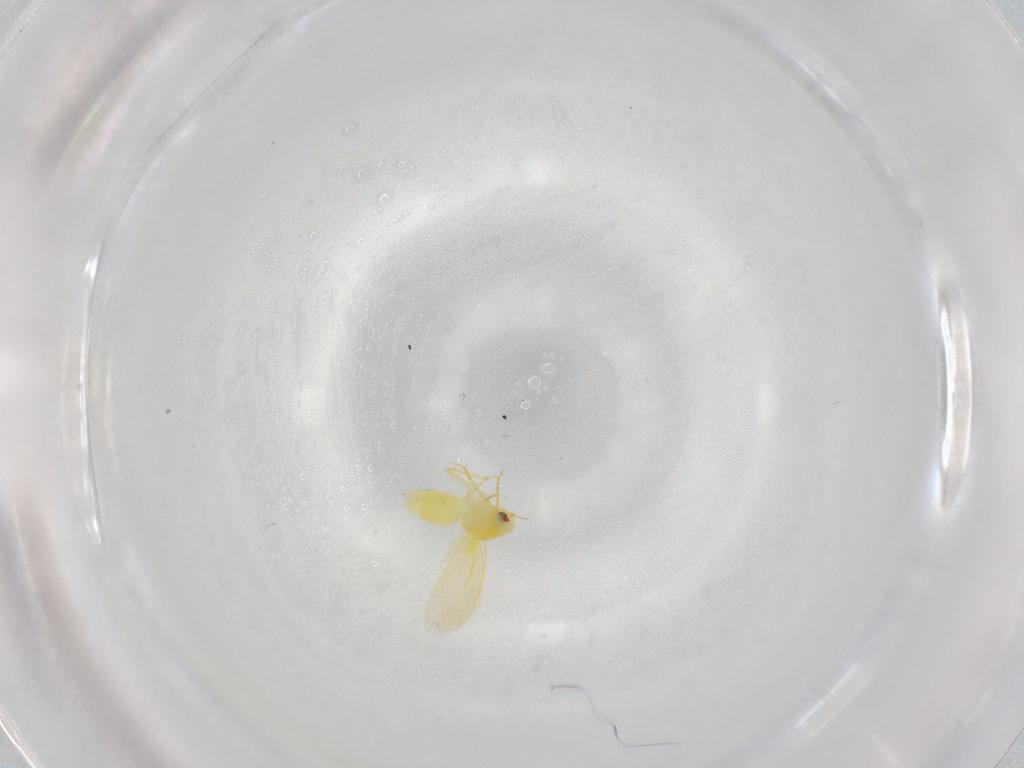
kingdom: Animalia
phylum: Arthropoda
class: Insecta
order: Hemiptera
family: Aleyrodidae
